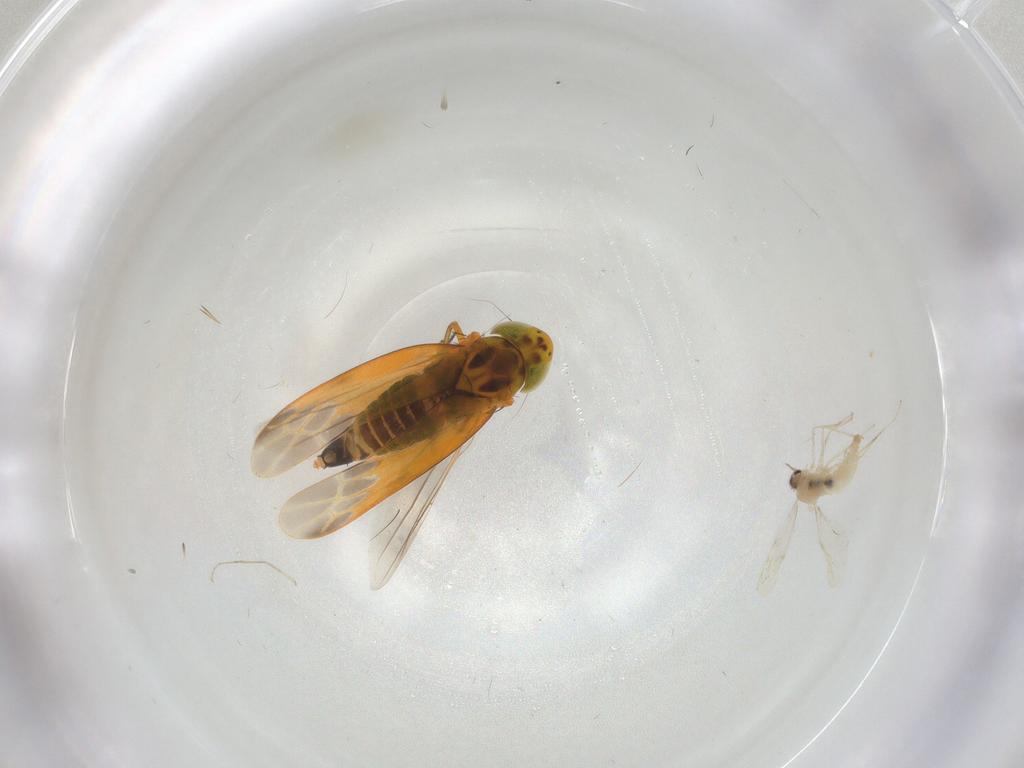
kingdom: Animalia
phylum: Arthropoda
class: Insecta
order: Diptera
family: Cecidomyiidae
